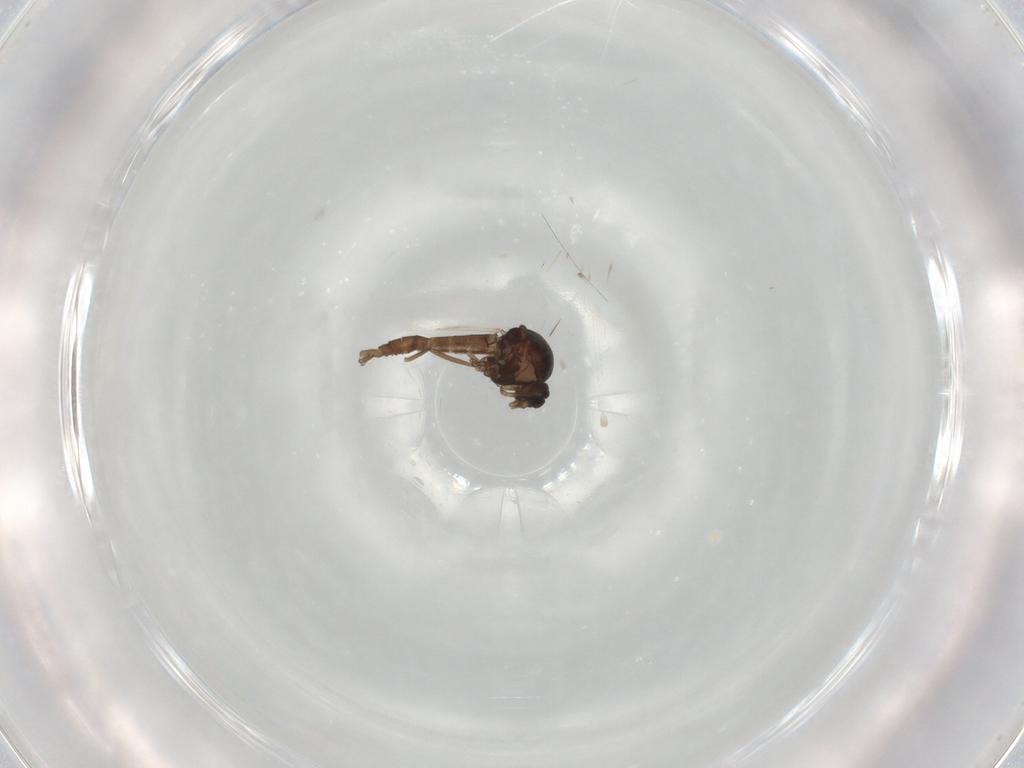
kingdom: Animalia
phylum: Arthropoda
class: Insecta
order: Diptera
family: Ceratopogonidae
